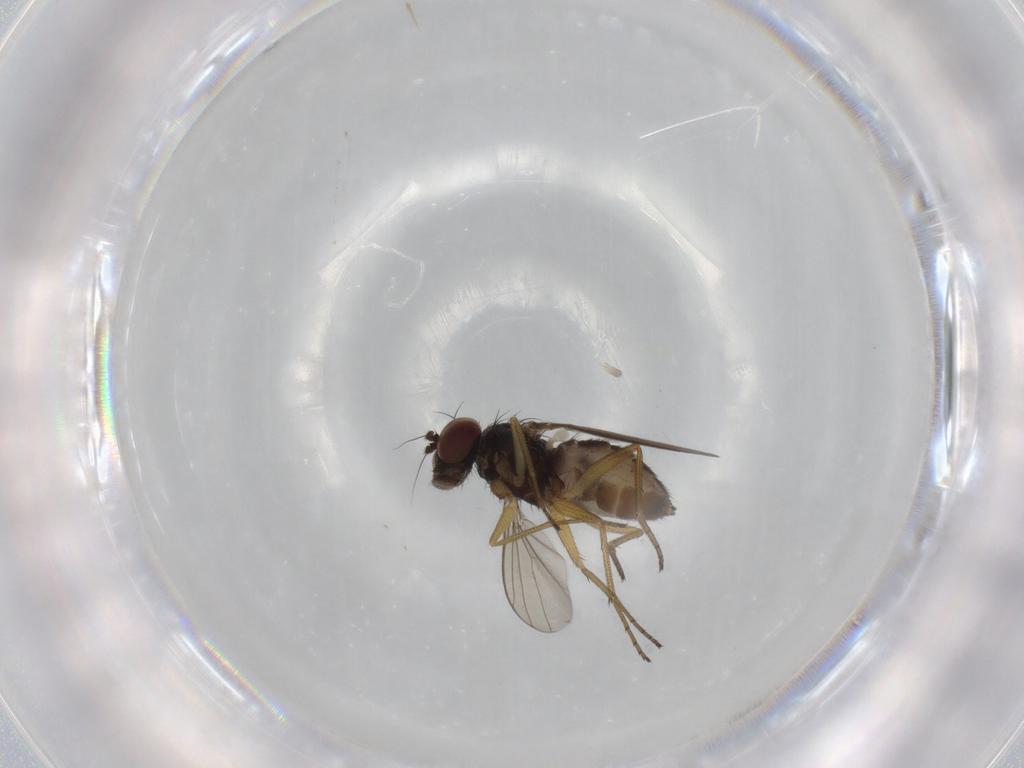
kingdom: Animalia
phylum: Arthropoda
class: Insecta
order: Diptera
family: Dolichopodidae
